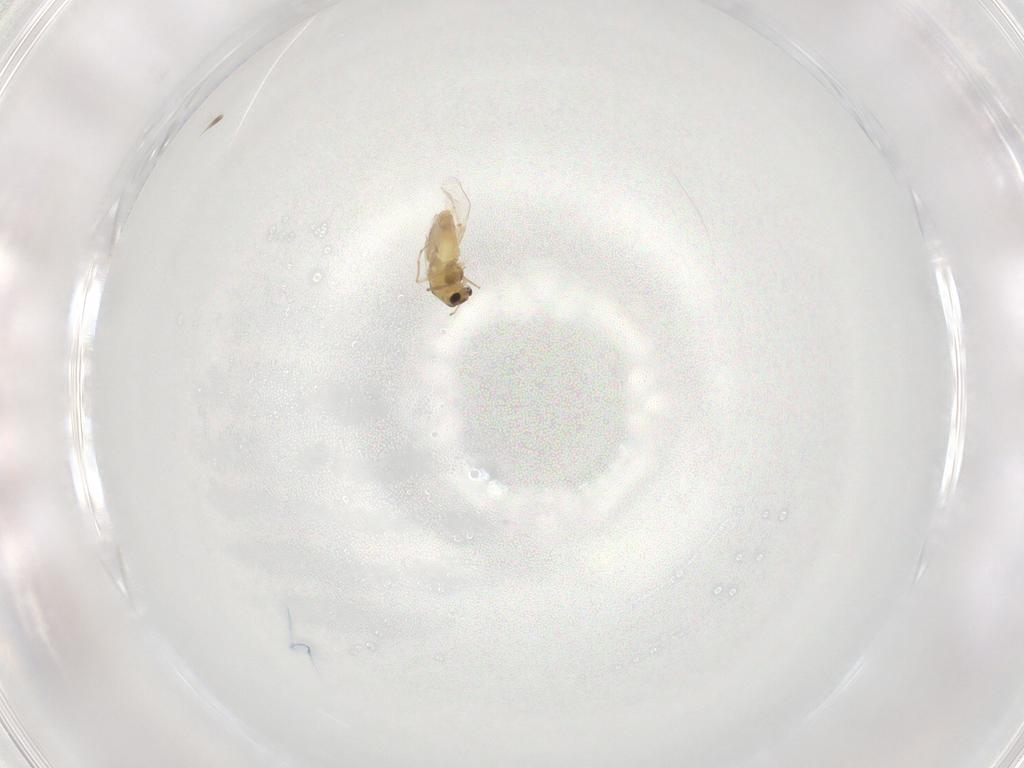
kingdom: Animalia
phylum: Arthropoda
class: Insecta
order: Diptera
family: Chironomidae
